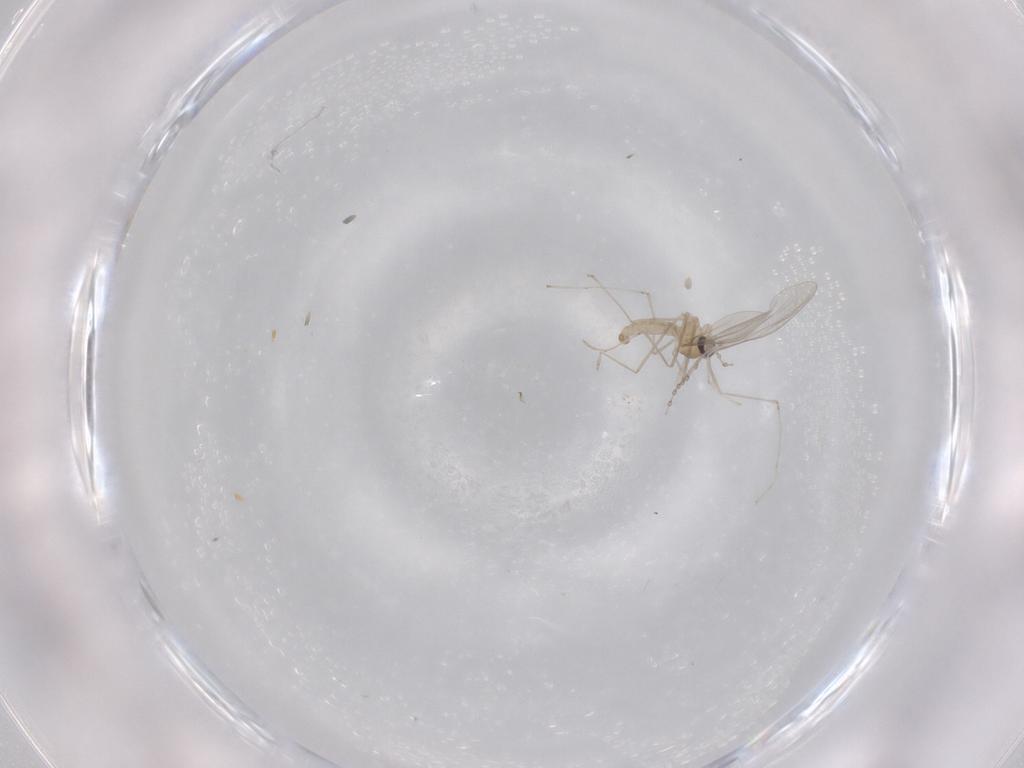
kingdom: Animalia
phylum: Arthropoda
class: Insecta
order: Diptera
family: Cecidomyiidae
